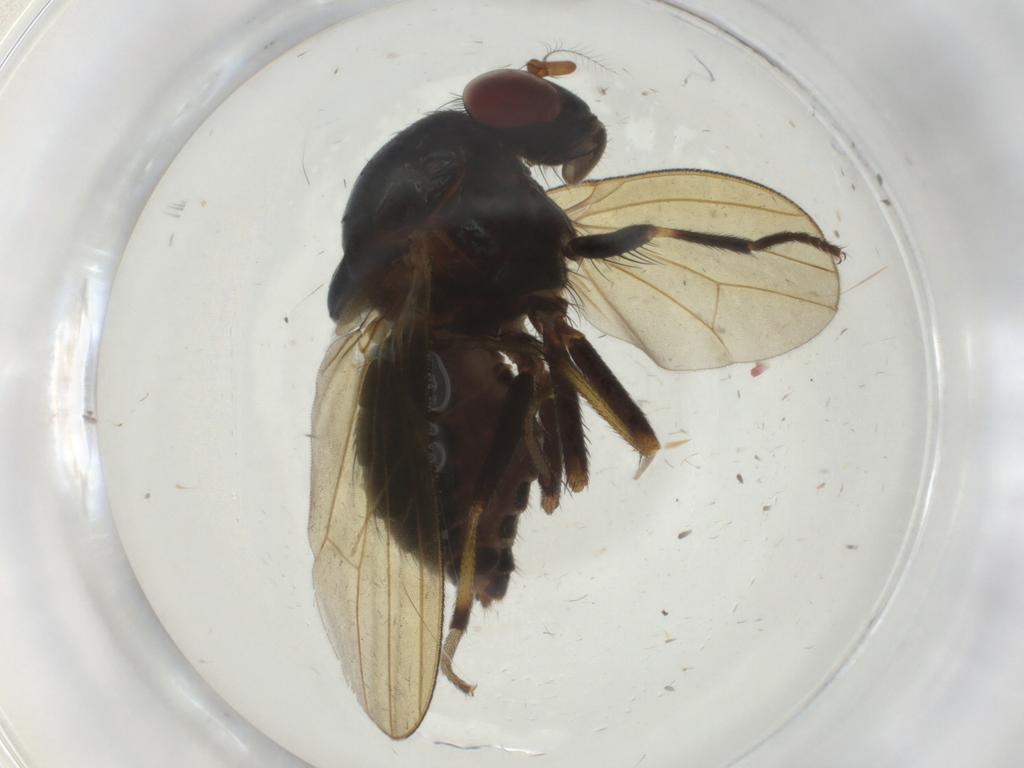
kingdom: Animalia
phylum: Arthropoda
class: Insecta
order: Diptera
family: Dolichopodidae
